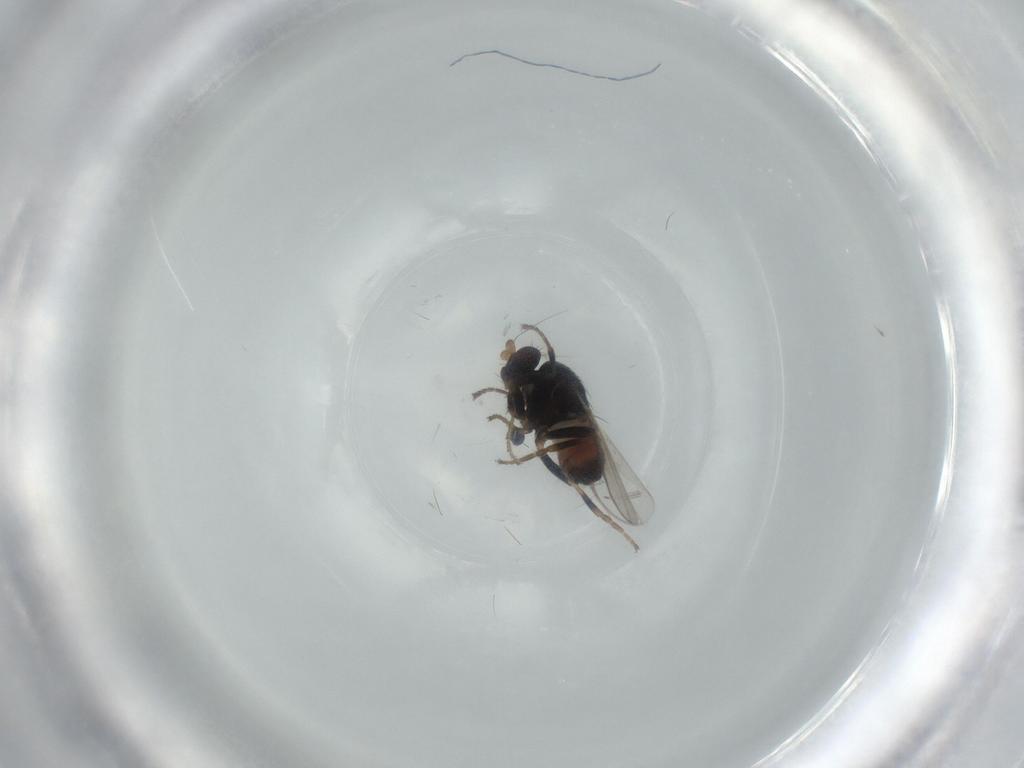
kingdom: Animalia
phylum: Arthropoda
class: Insecta
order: Diptera
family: Sphaeroceridae
